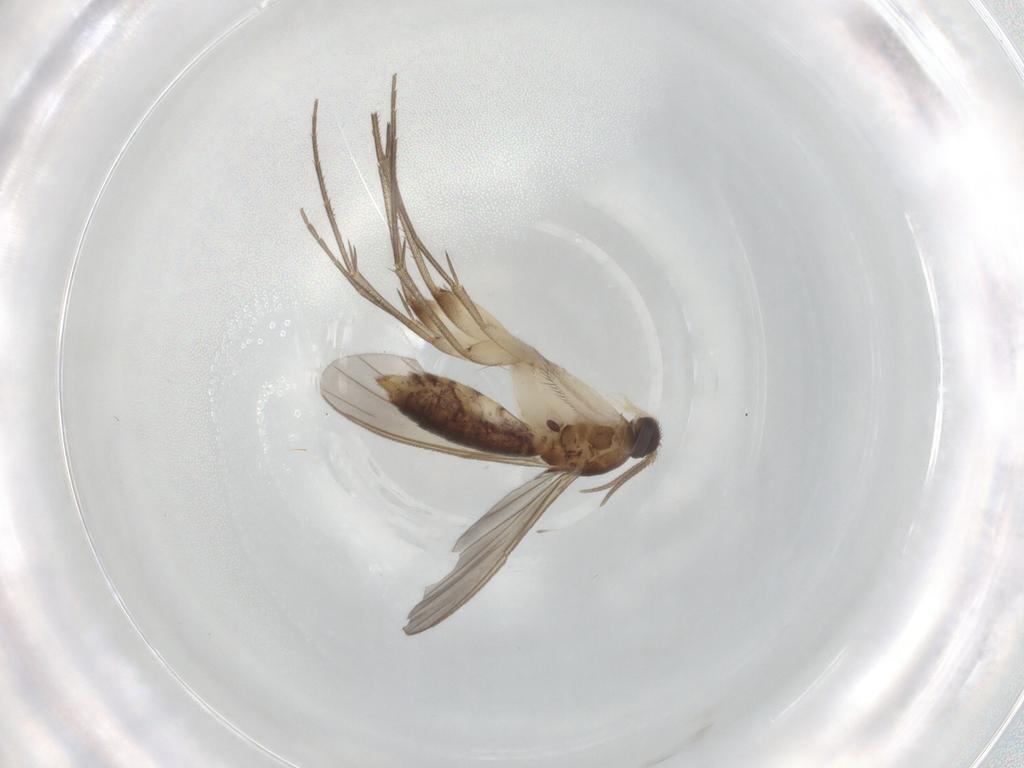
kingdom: Animalia
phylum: Arthropoda
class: Insecta
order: Diptera
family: Mycetophilidae
